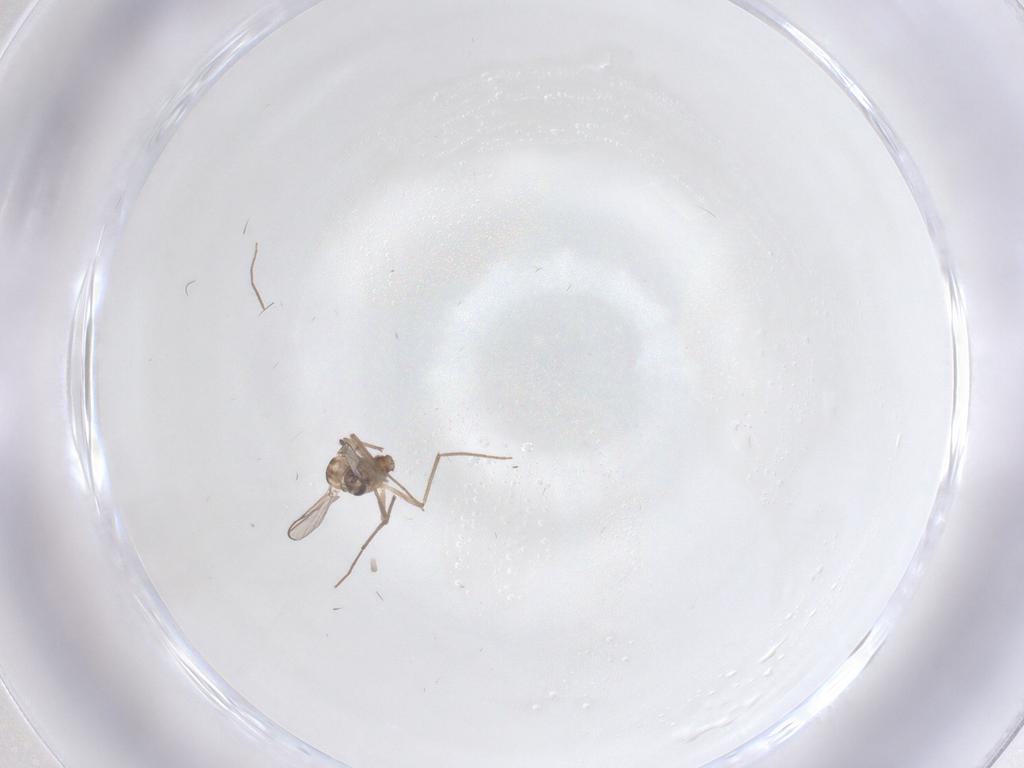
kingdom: Animalia
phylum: Arthropoda
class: Insecta
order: Diptera
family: Chironomidae
